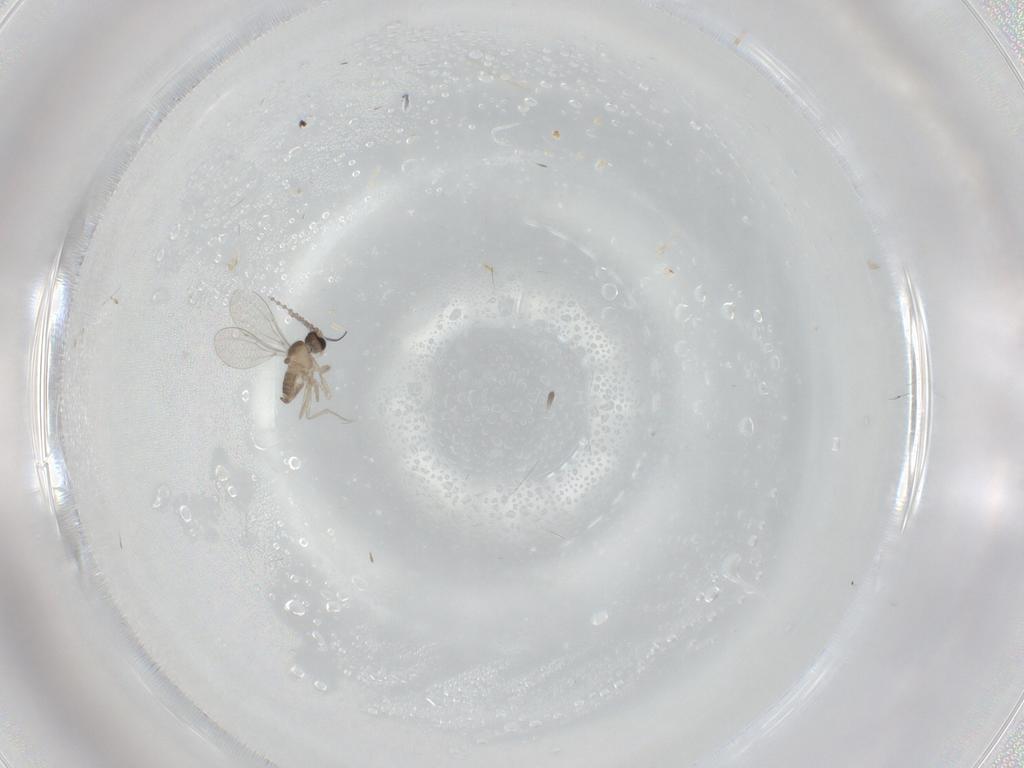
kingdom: Animalia
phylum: Arthropoda
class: Insecta
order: Diptera
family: Cecidomyiidae
